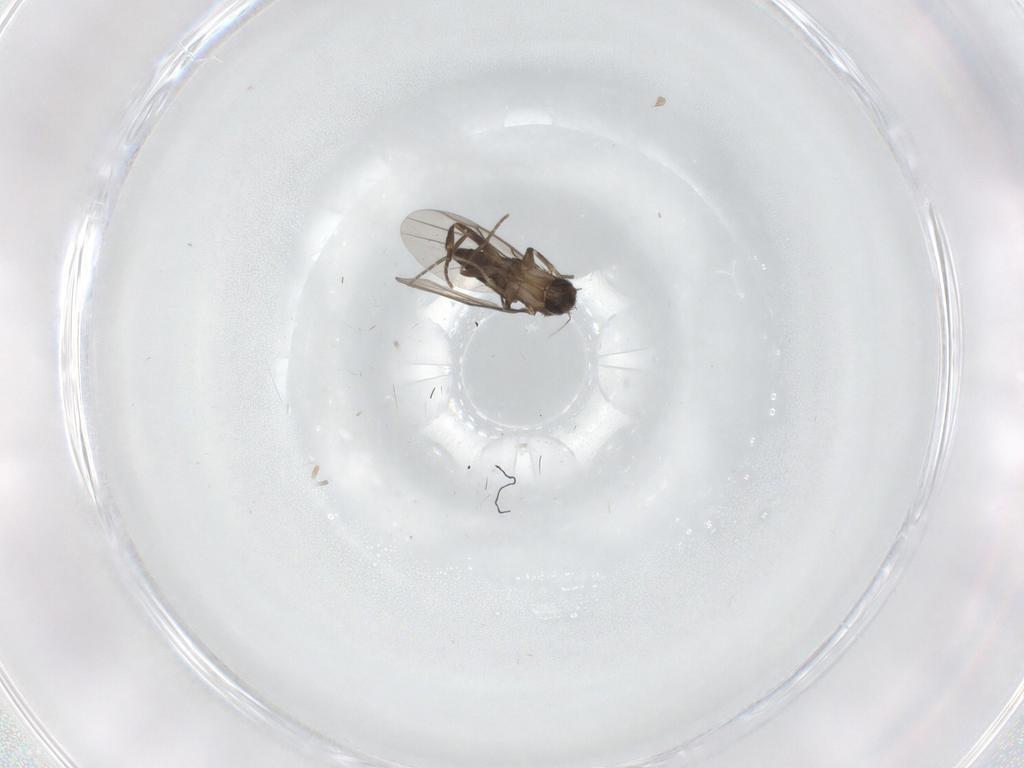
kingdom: Animalia
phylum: Arthropoda
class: Insecta
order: Diptera
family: Phoridae
